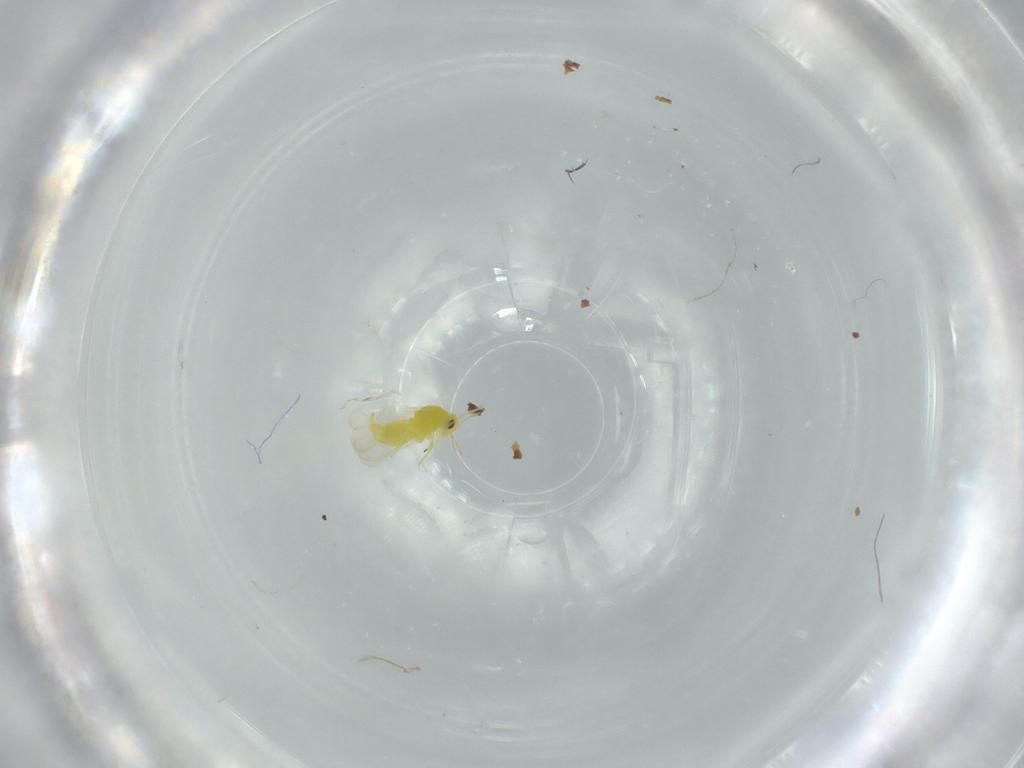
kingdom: Animalia
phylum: Arthropoda
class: Insecta
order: Hemiptera
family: Aleyrodidae
